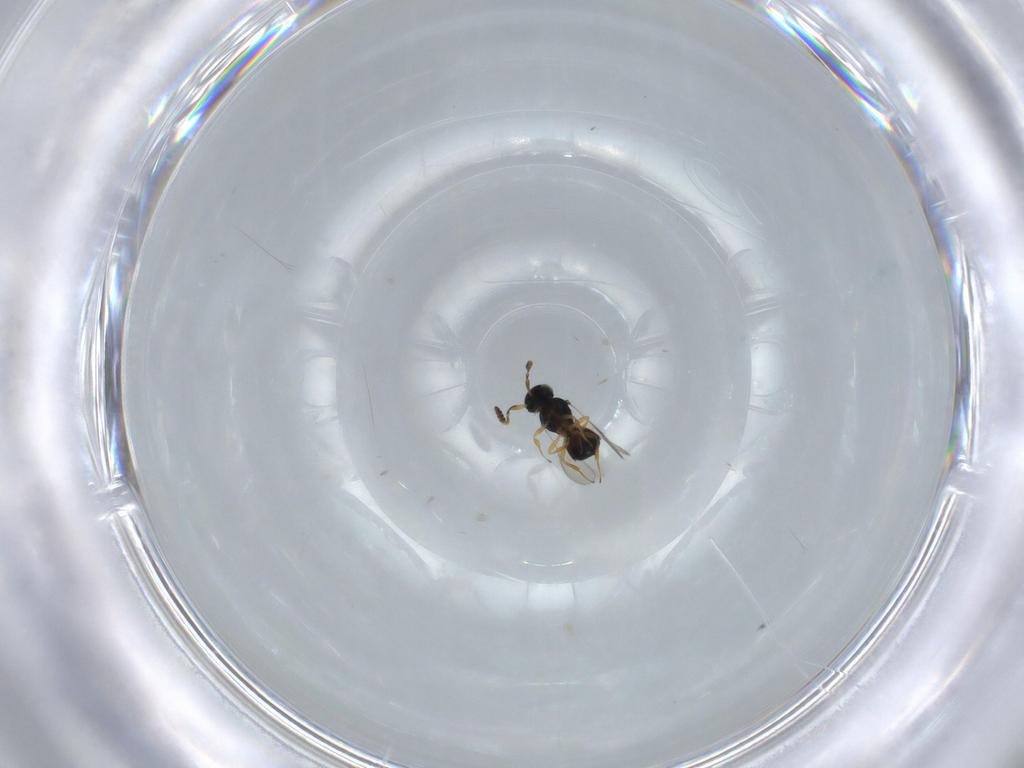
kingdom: Animalia
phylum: Arthropoda
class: Insecta
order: Hymenoptera
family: Scelionidae
